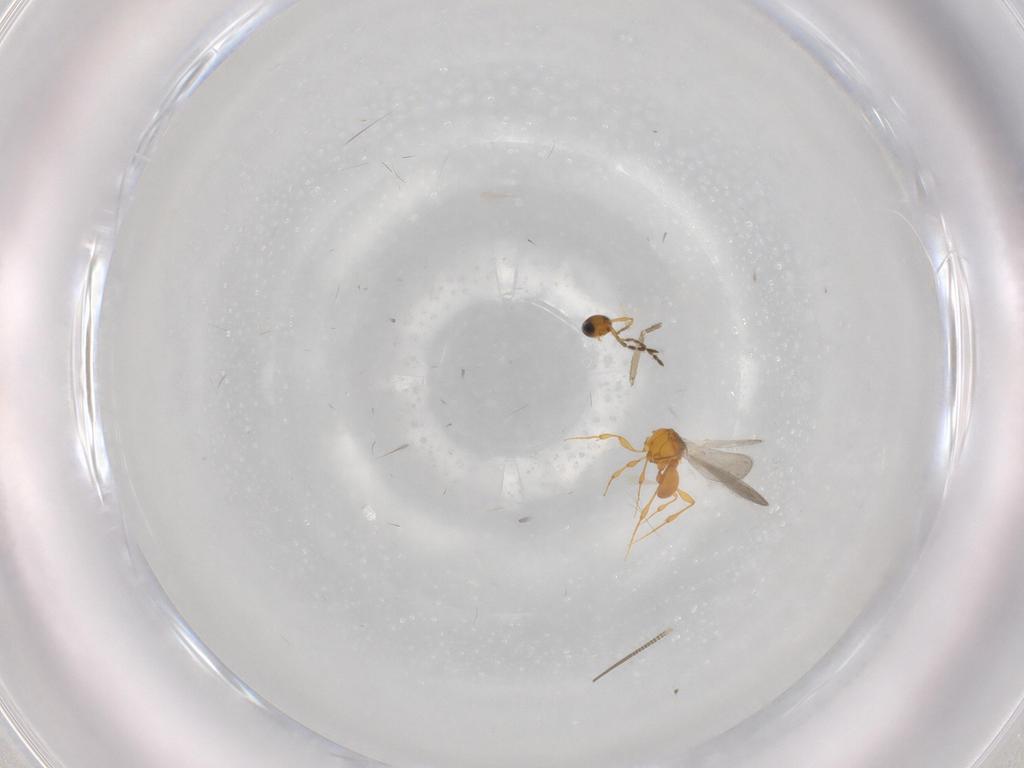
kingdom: Animalia
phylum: Arthropoda
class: Insecta
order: Hymenoptera
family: Platygastridae
